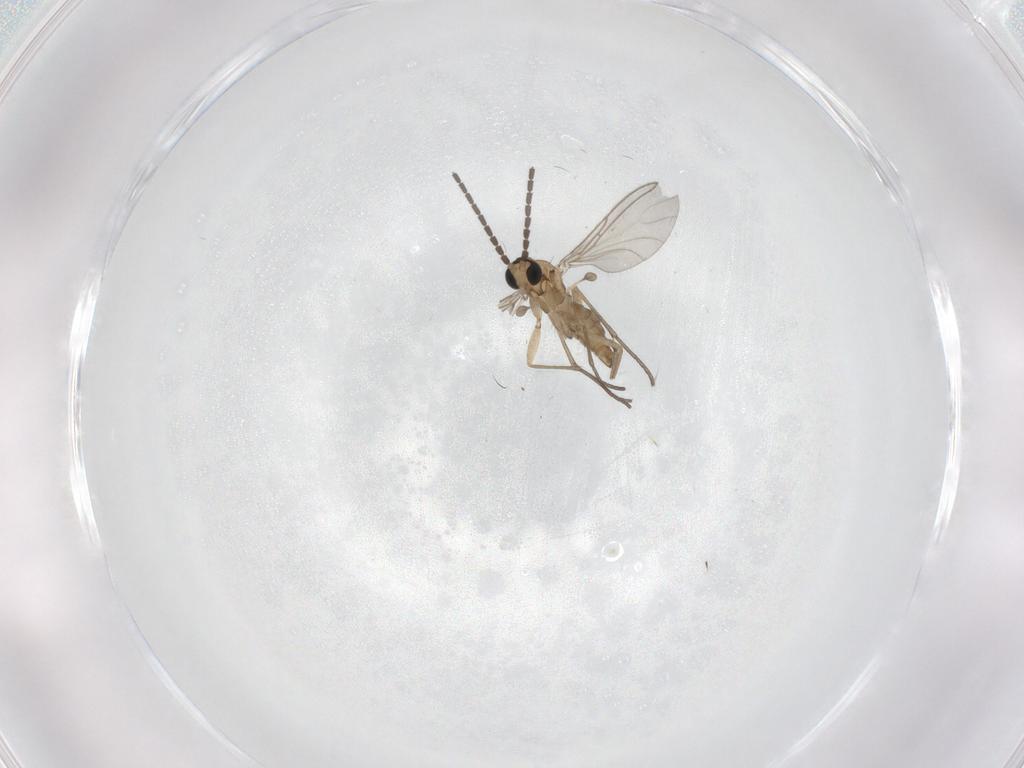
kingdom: Animalia
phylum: Arthropoda
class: Insecta
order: Diptera
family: Sciaridae
